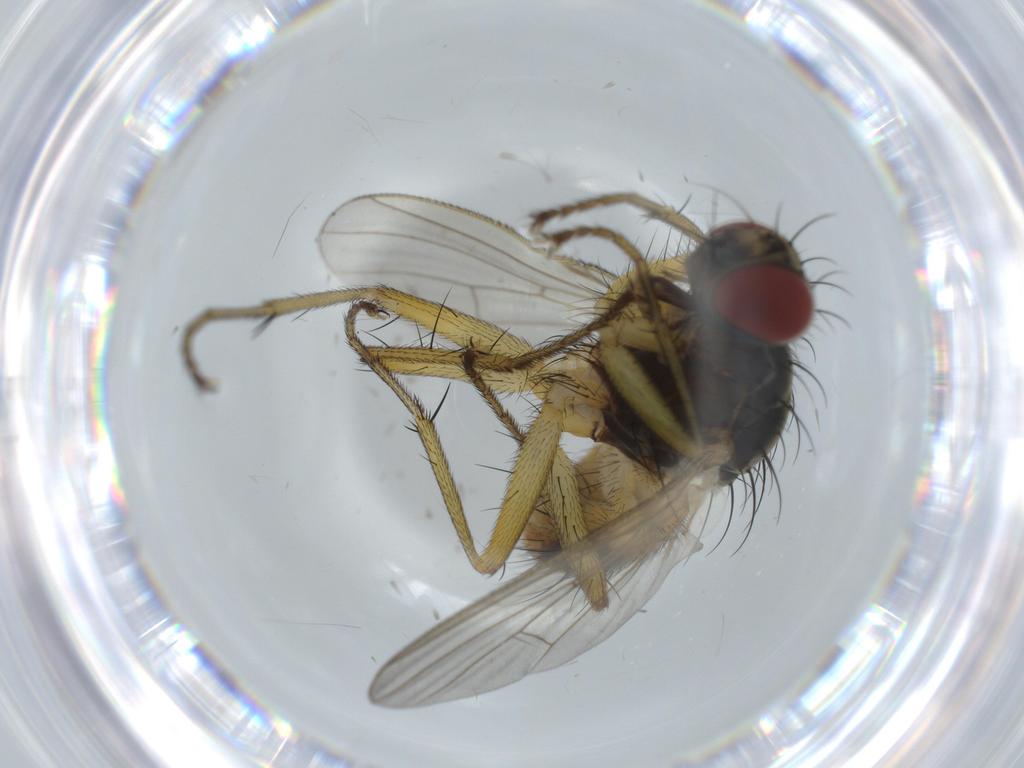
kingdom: Animalia
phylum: Arthropoda
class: Insecta
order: Diptera
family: Muscidae
